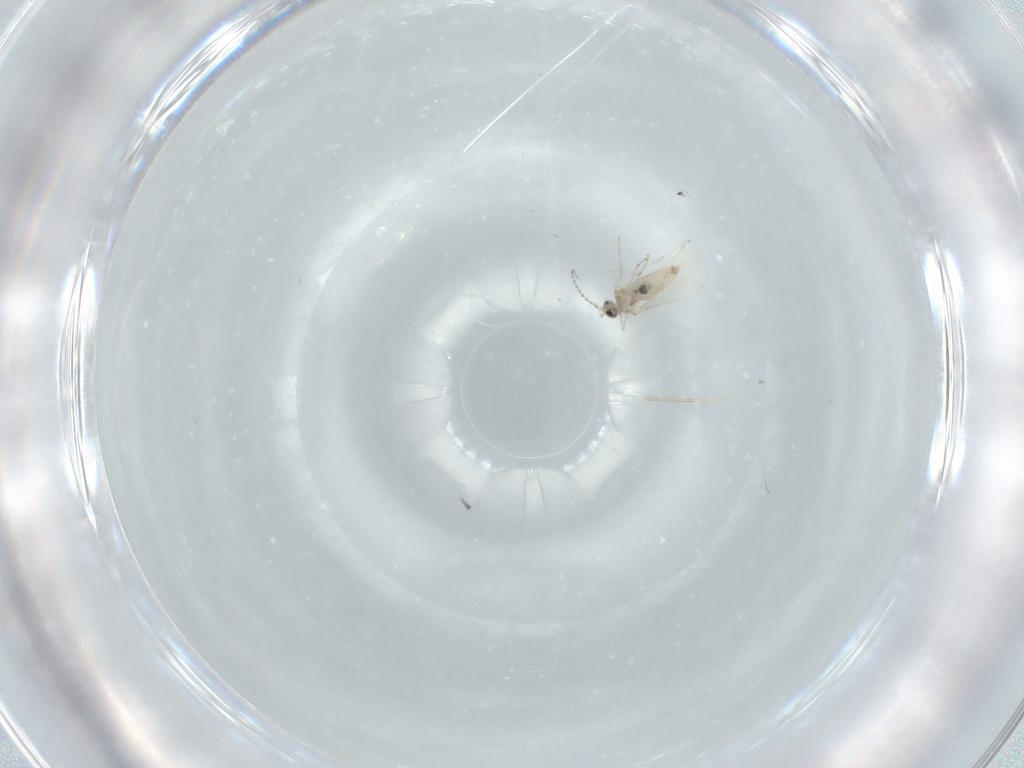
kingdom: Animalia
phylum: Arthropoda
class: Insecta
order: Diptera
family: Cecidomyiidae
